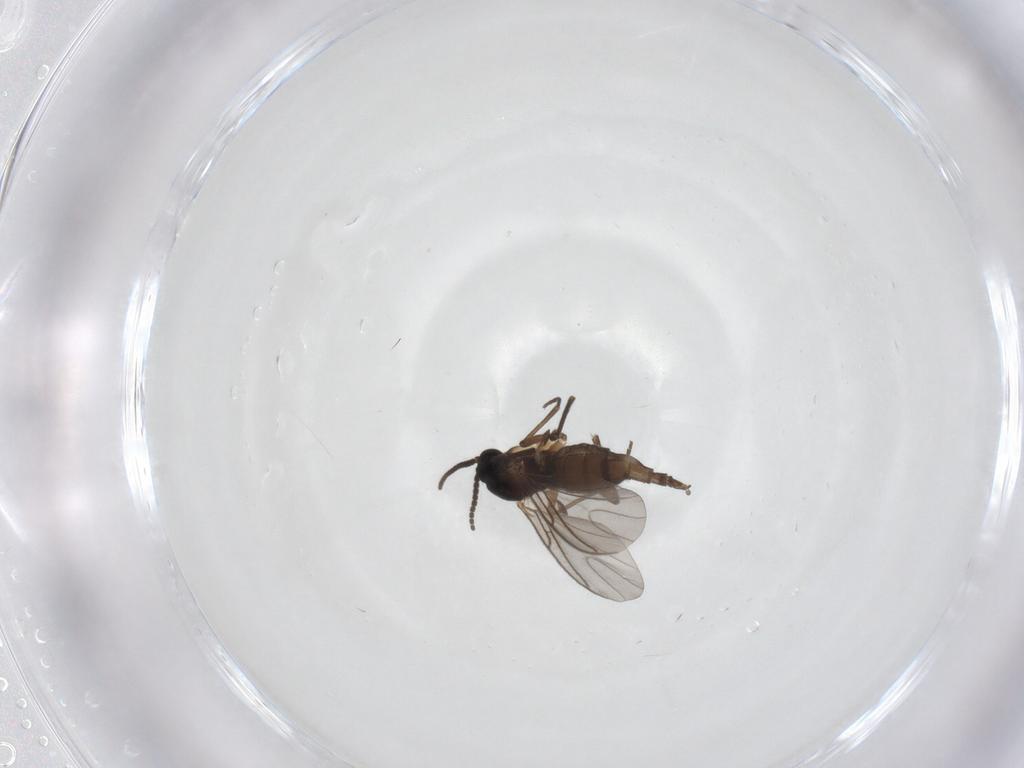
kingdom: Animalia
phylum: Arthropoda
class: Insecta
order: Diptera
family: Sciaridae
